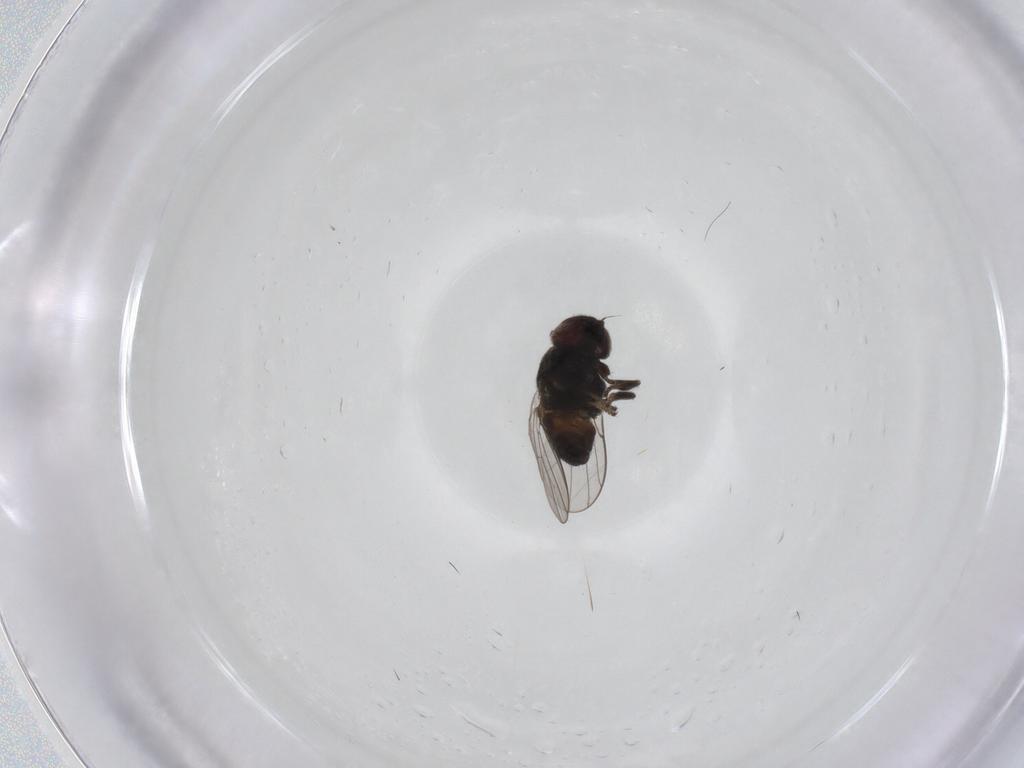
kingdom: Animalia
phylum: Arthropoda
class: Insecta
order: Diptera
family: Chloropidae
